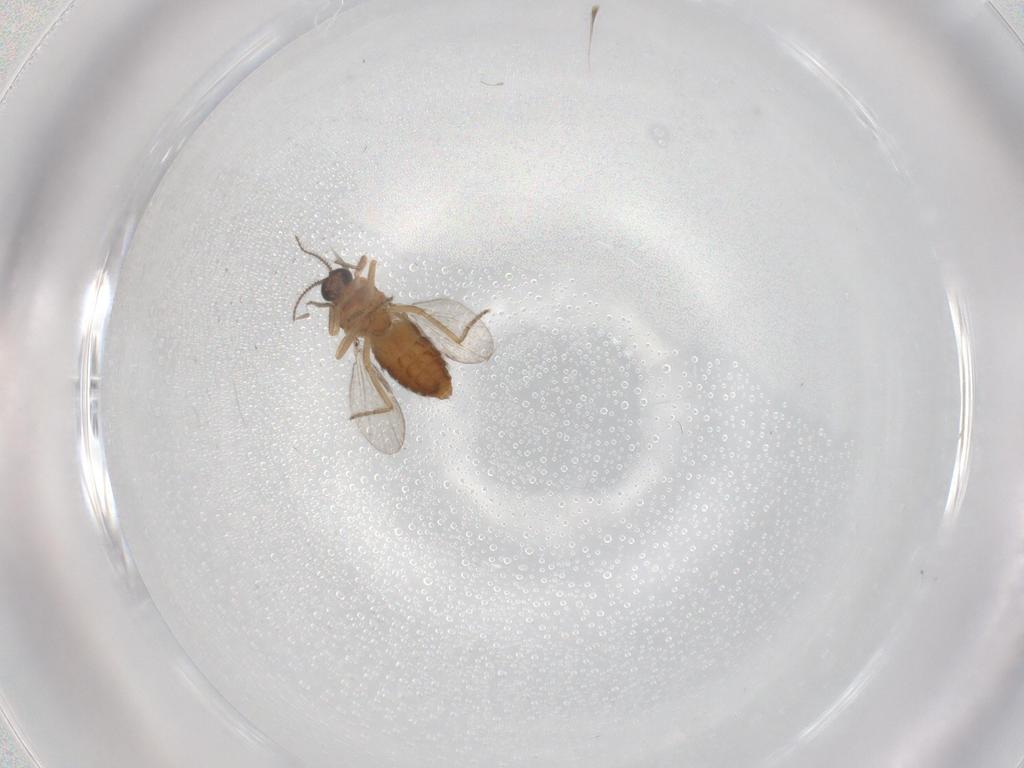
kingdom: Animalia
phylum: Arthropoda
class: Insecta
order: Diptera
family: Ceratopogonidae
